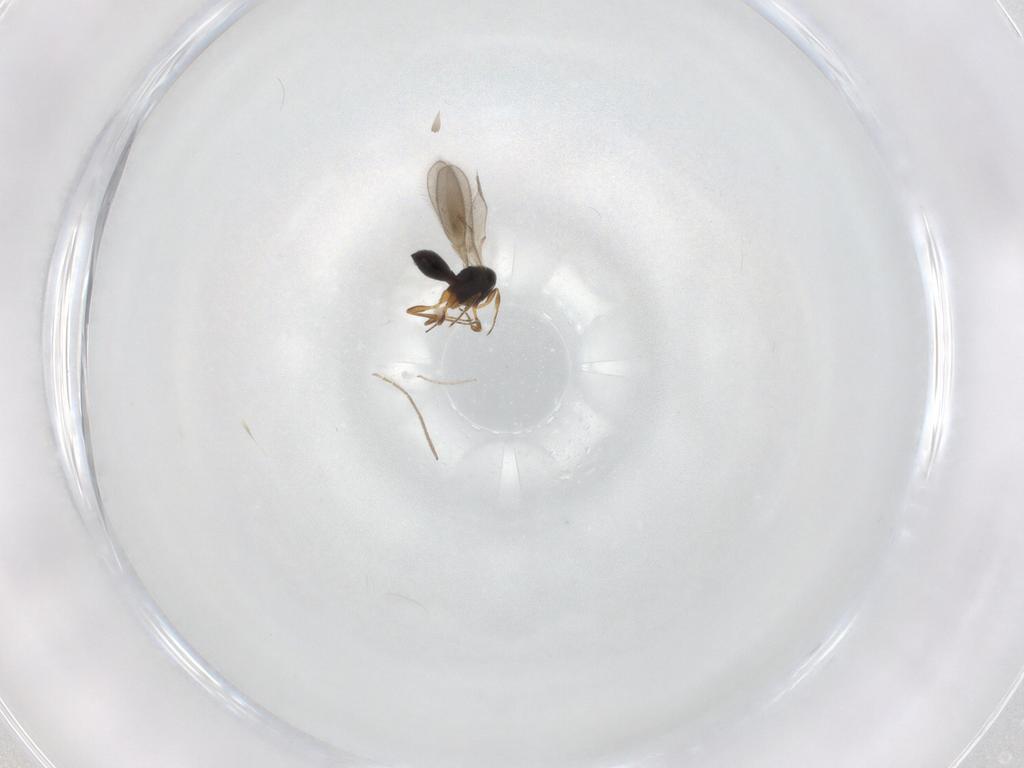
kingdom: Animalia
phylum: Arthropoda
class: Insecta
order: Hymenoptera
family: Scelionidae
